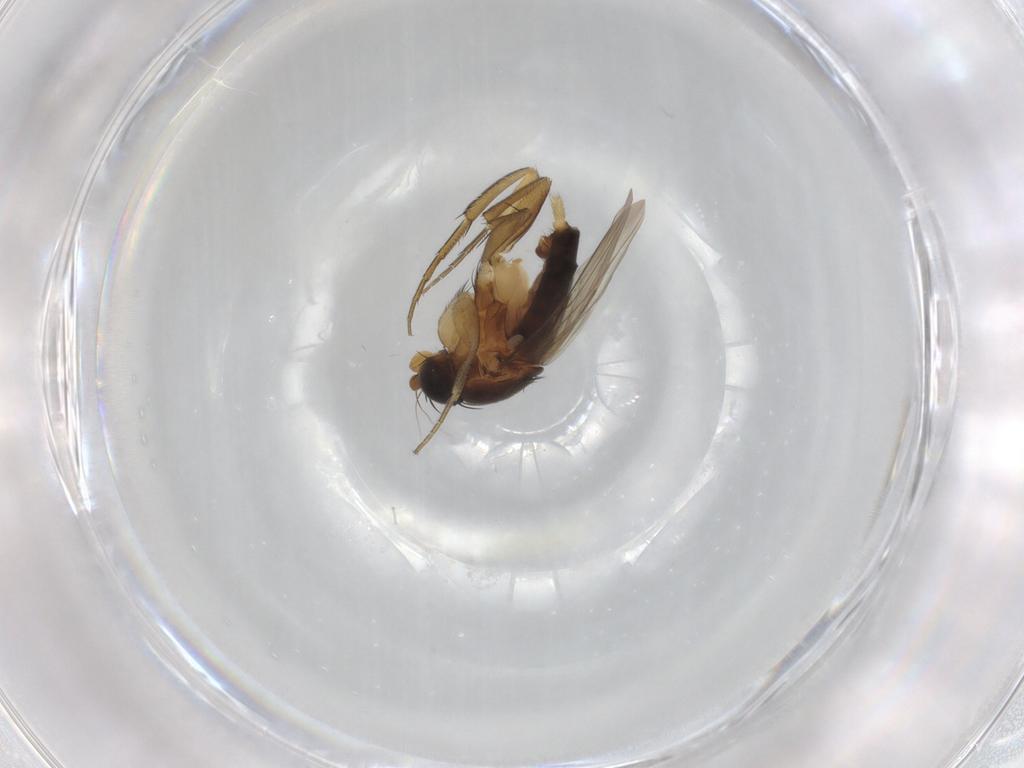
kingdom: Animalia
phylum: Arthropoda
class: Insecta
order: Diptera
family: Phoridae
